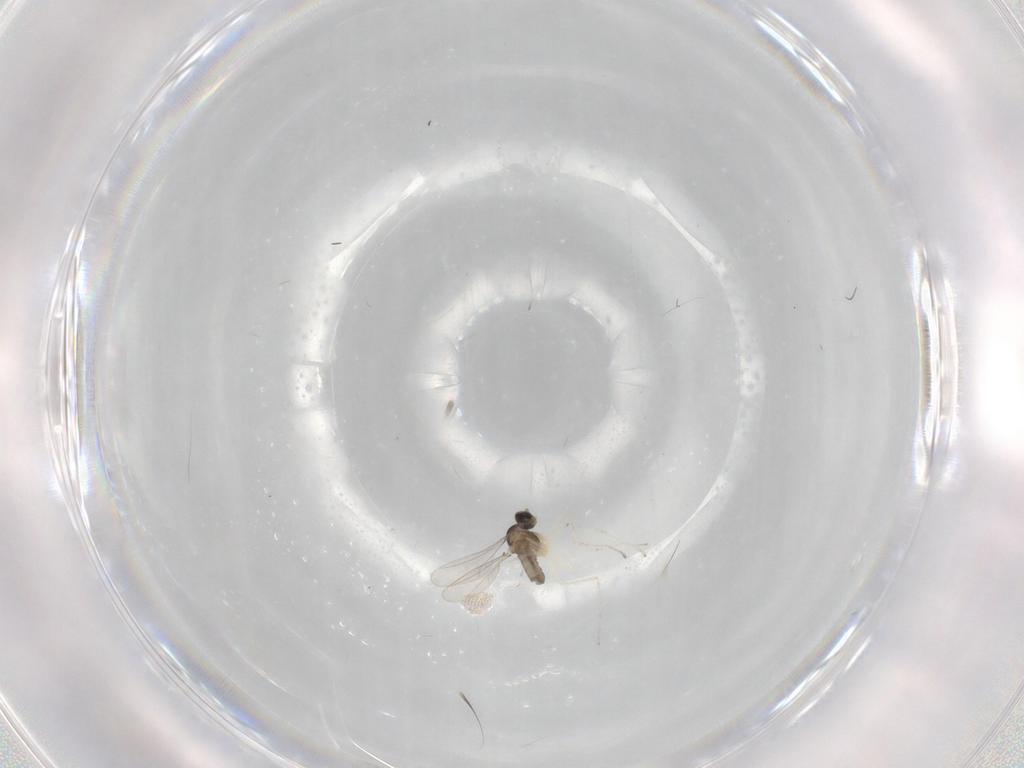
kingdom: Animalia
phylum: Arthropoda
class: Insecta
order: Diptera
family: Cecidomyiidae
